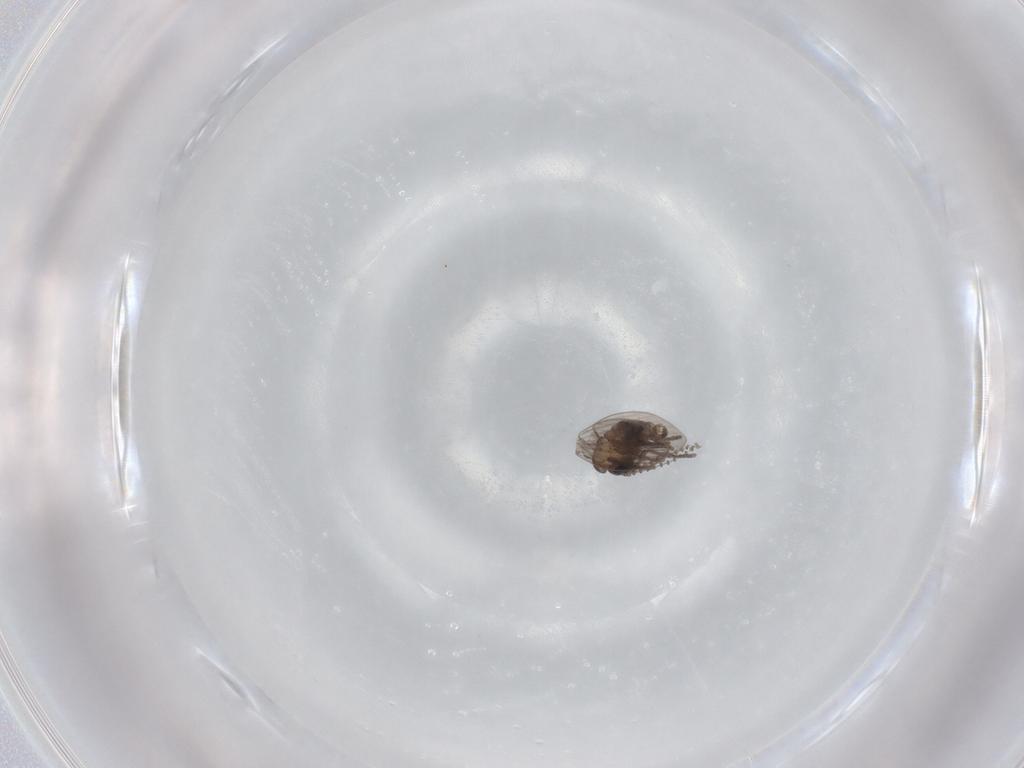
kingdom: Animalia
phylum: Arthropoda
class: Insecta
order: Diptera
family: Psychodidae
